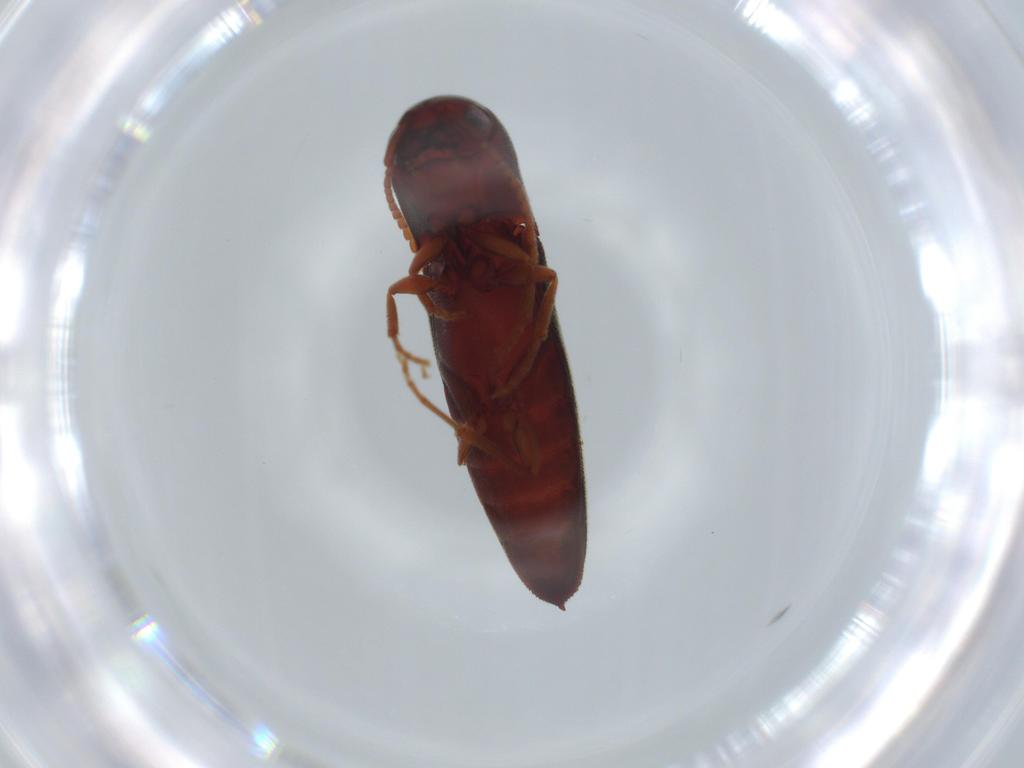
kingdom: Animalia
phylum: Arthropoda
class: Insecta
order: Coleoptera
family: Eucnemidae
